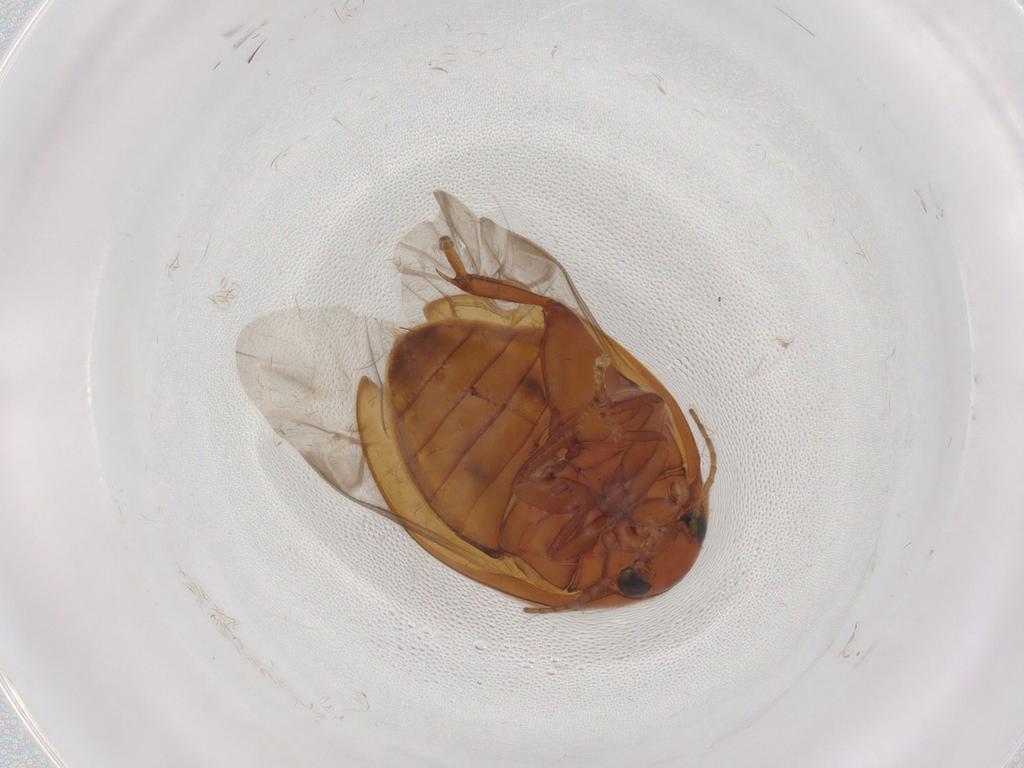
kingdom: Animalia
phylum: Arthropoda
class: Insecta
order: Coleoptera
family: Scirtidae
